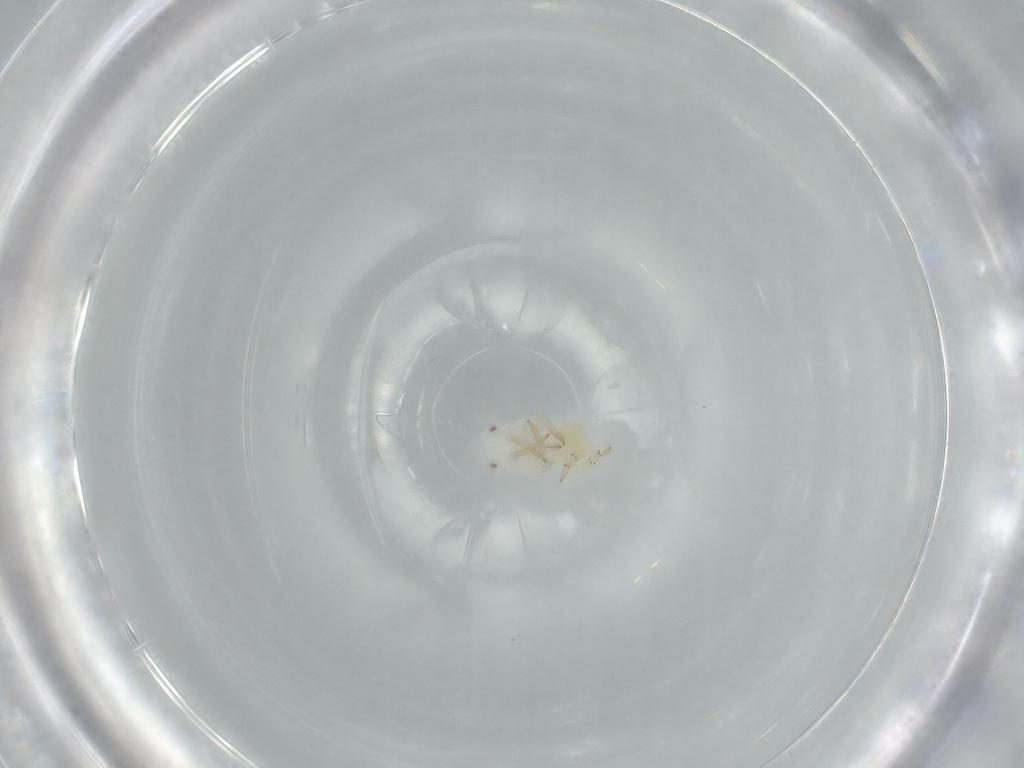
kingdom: Animalia
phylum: Arthropoda
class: Insecta
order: Hemiptera
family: Flatidae
